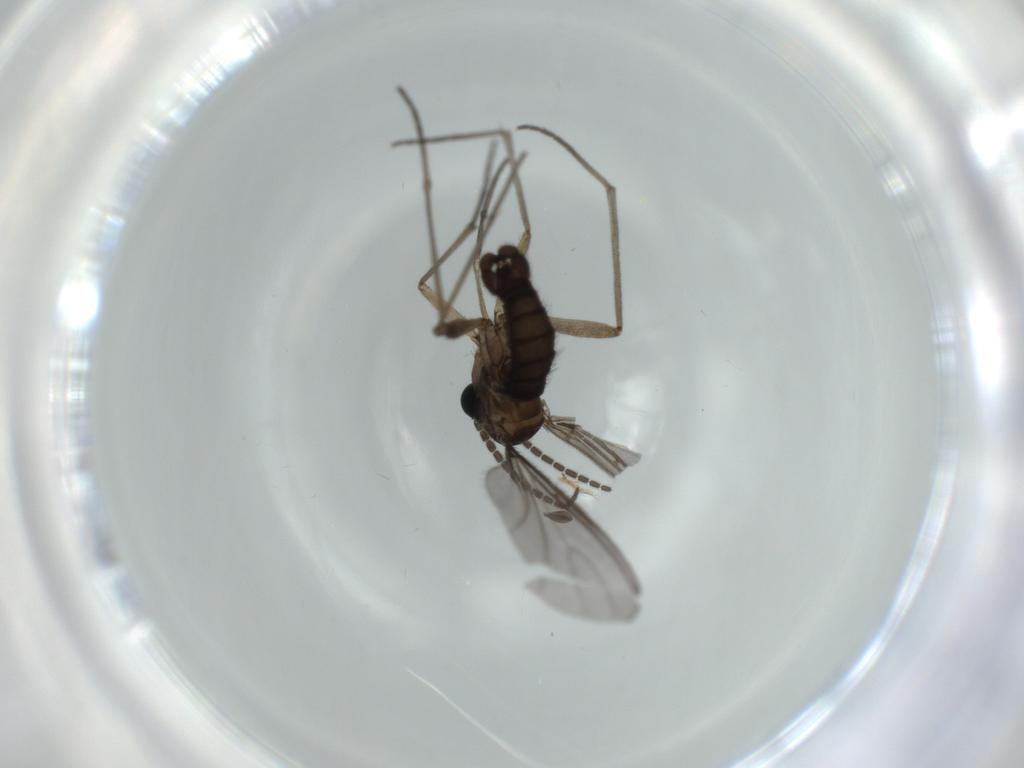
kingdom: Animalia
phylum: Arthropoda
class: Insecta
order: Diptera
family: Sciaridae
